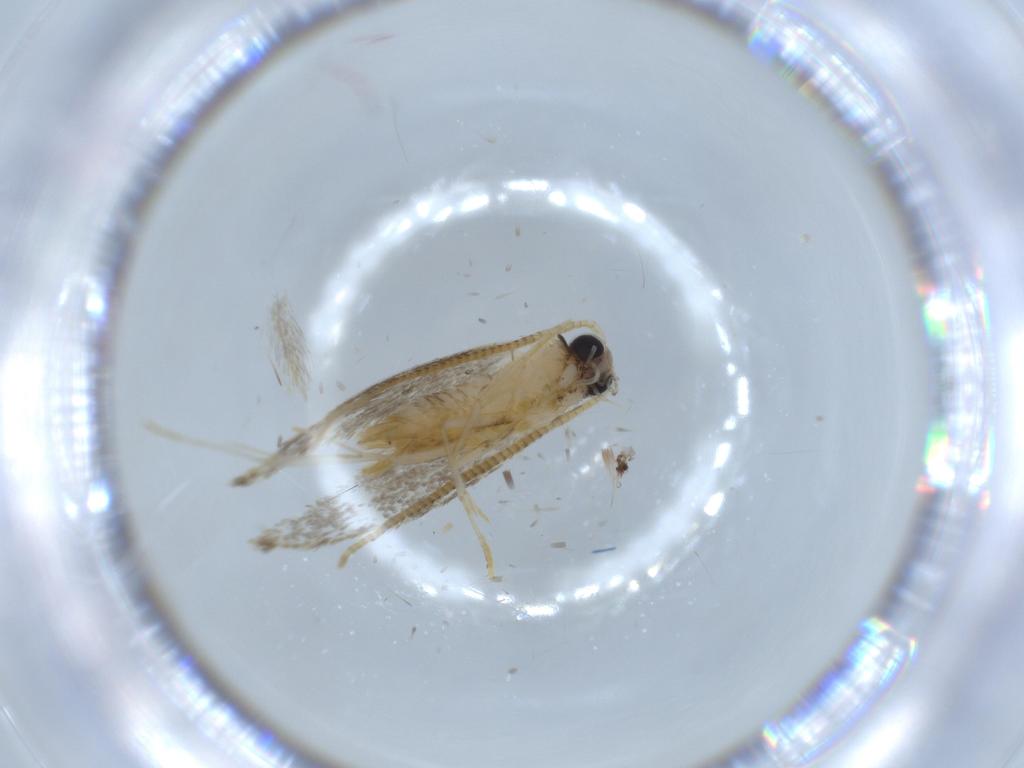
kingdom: Animalia
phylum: Arthropoda
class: Insecta
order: Lepidoptera
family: Tineidae
